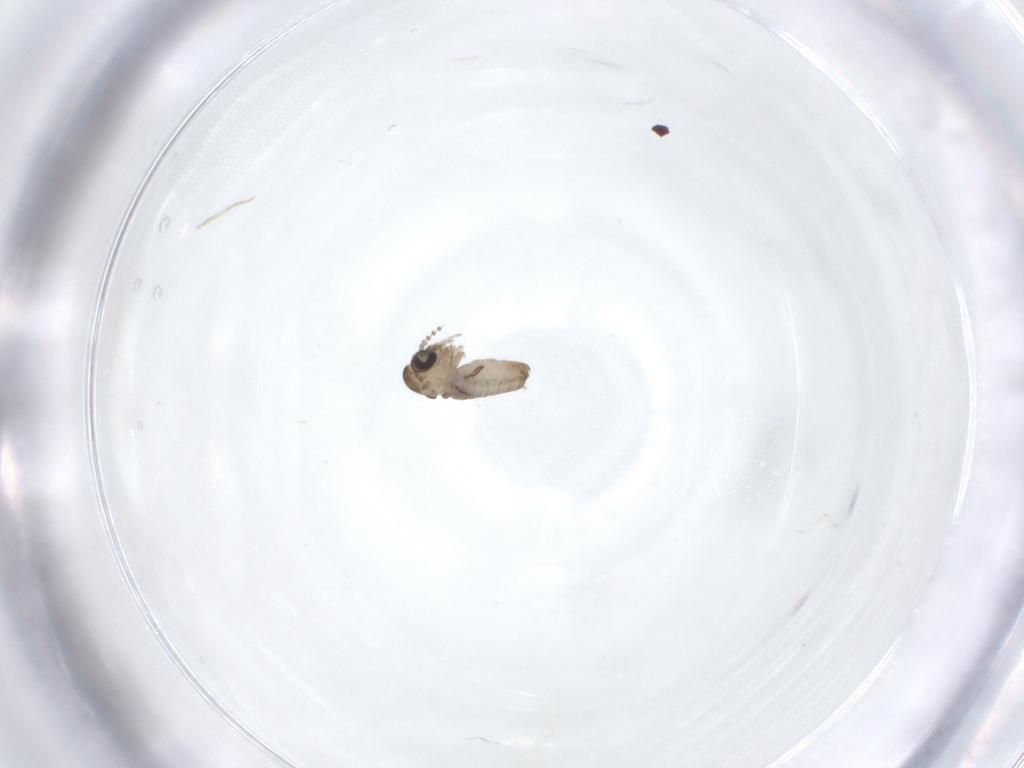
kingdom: Animalia
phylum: Arthropoda
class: Insecta
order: Diptera
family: Psychodidae
